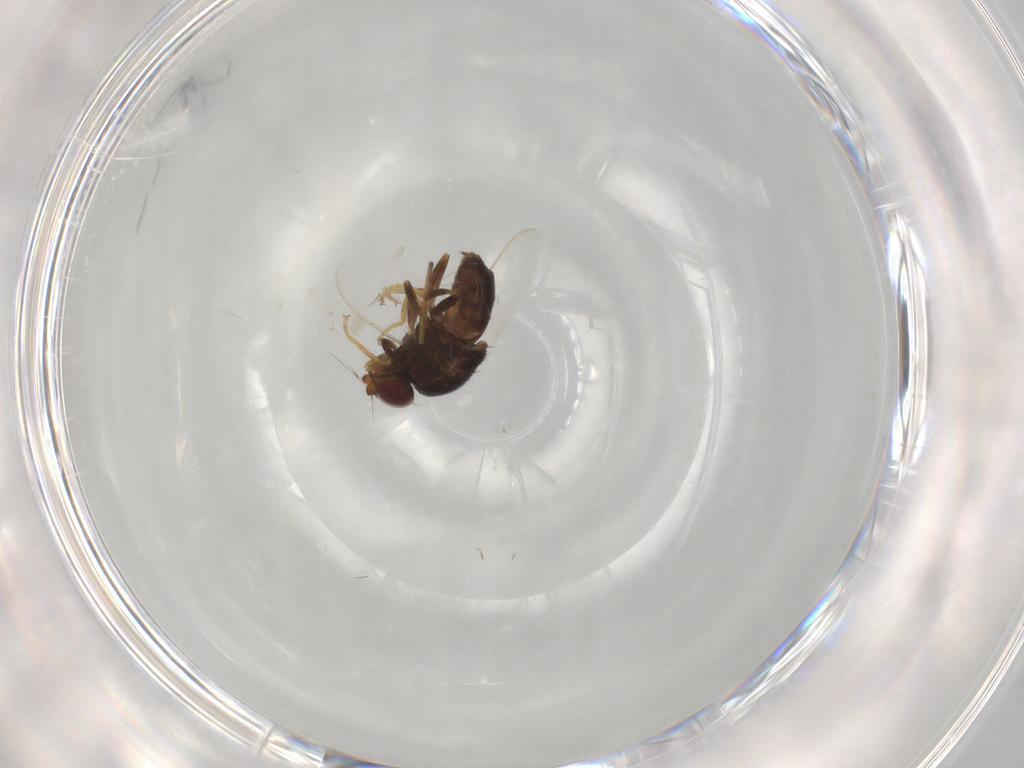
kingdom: Animalia
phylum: Arthropoda
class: Insecta
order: Diptera
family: Chloropidae
